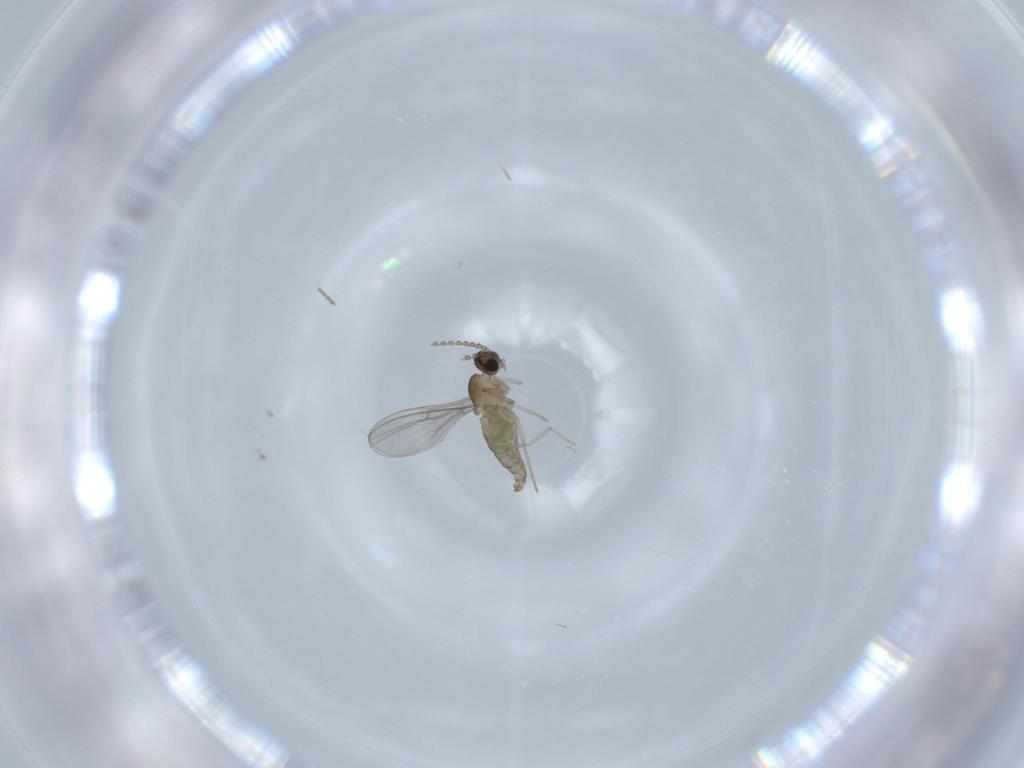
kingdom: Animalia
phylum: Arthropoda
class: Insecta
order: Diptera
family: Cecidomyiidae
